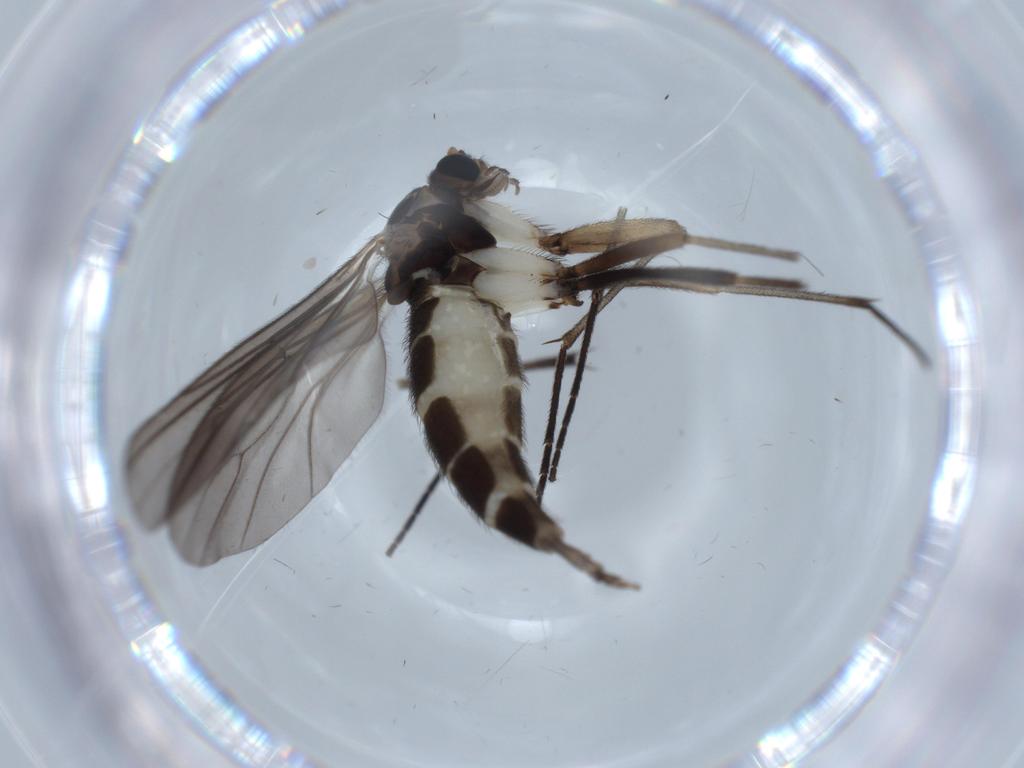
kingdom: Animalia
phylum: Arthropoda
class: Insecta
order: Diptera
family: Sciaridae
